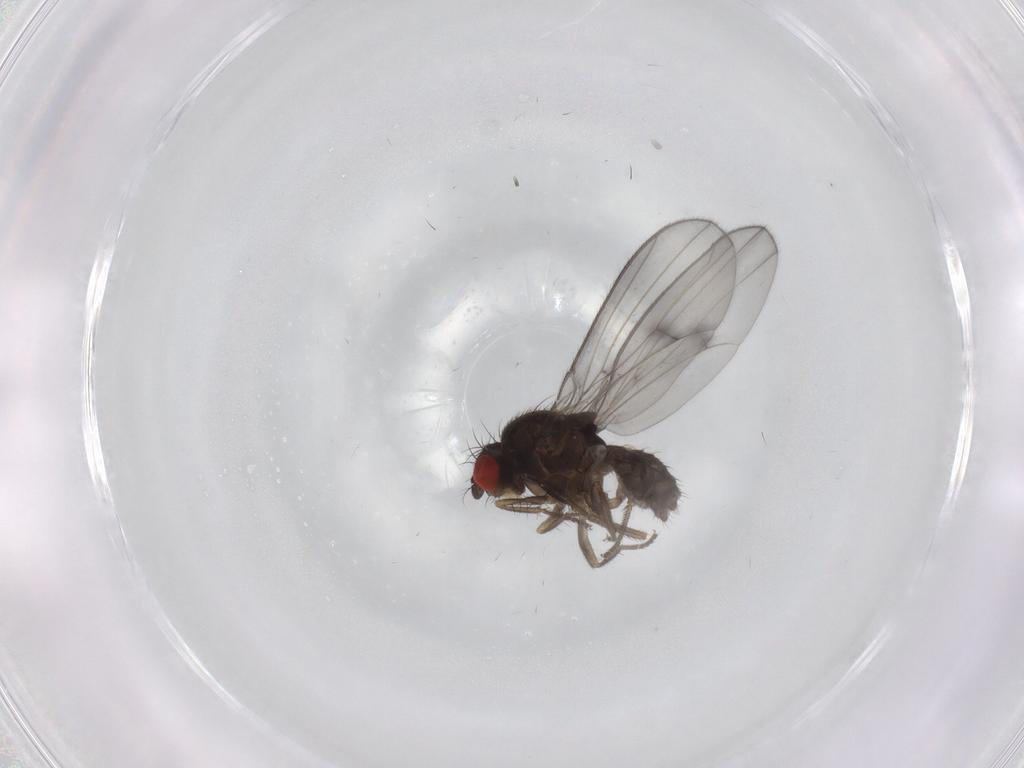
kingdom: Animalia
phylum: Arthropoda
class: Insecta
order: Diptera
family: Drosophilidae
